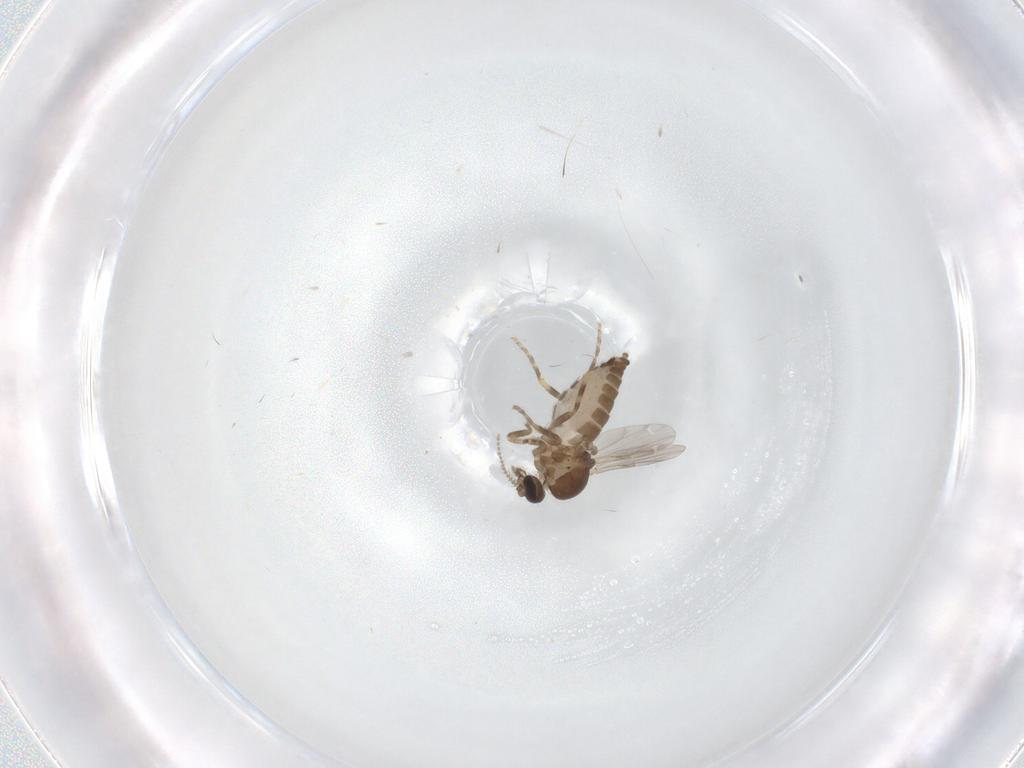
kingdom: Animalia
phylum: Arthropoda
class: Insecta
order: Diptera
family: Ceratopogonidae
